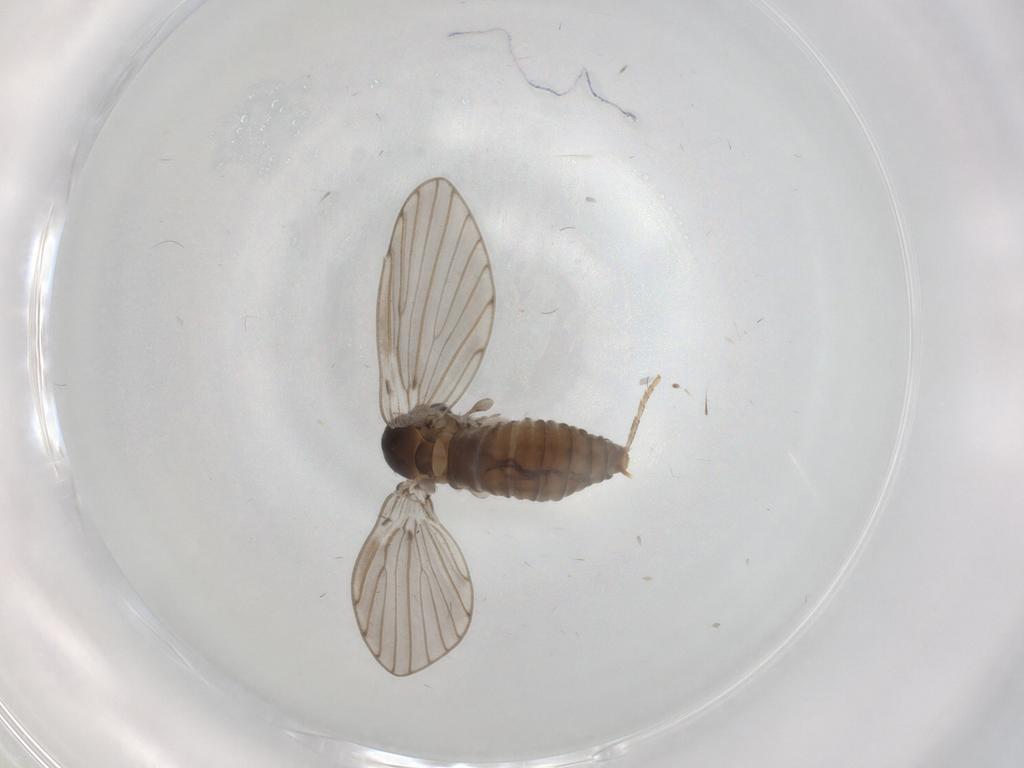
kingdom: Animalia
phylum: Arthropoda
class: Insecta
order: Diptera
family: Psychodidae
